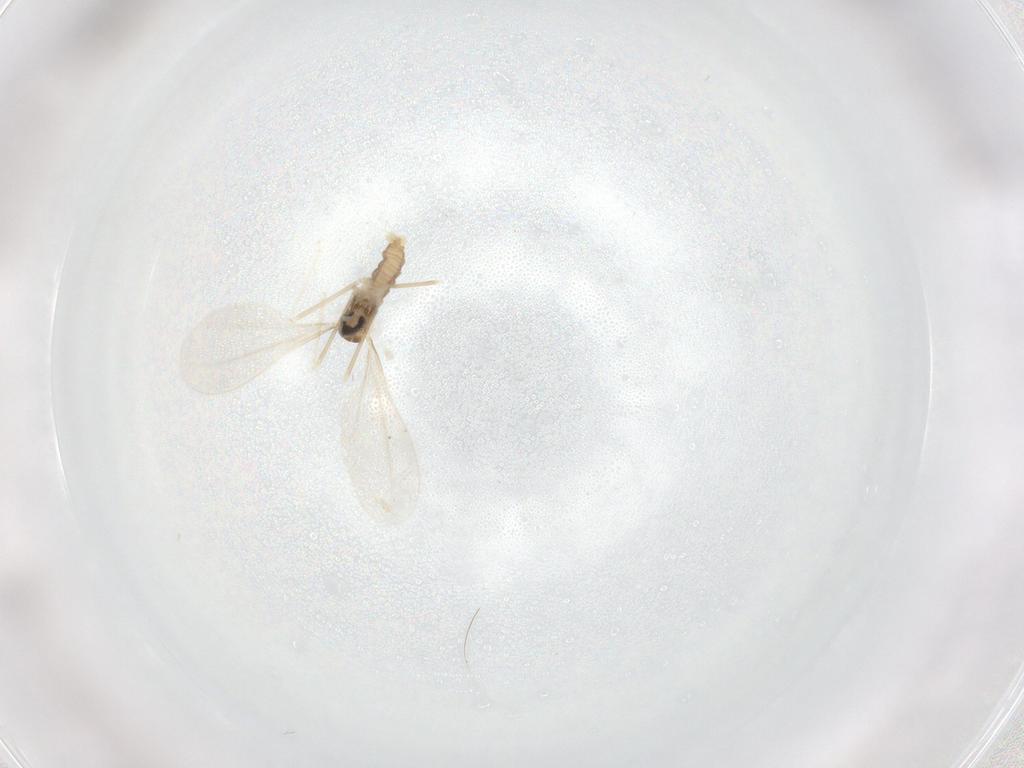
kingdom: Animalia
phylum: Arthropoda
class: Insecta
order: Diptera
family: Cecidomyiidae
